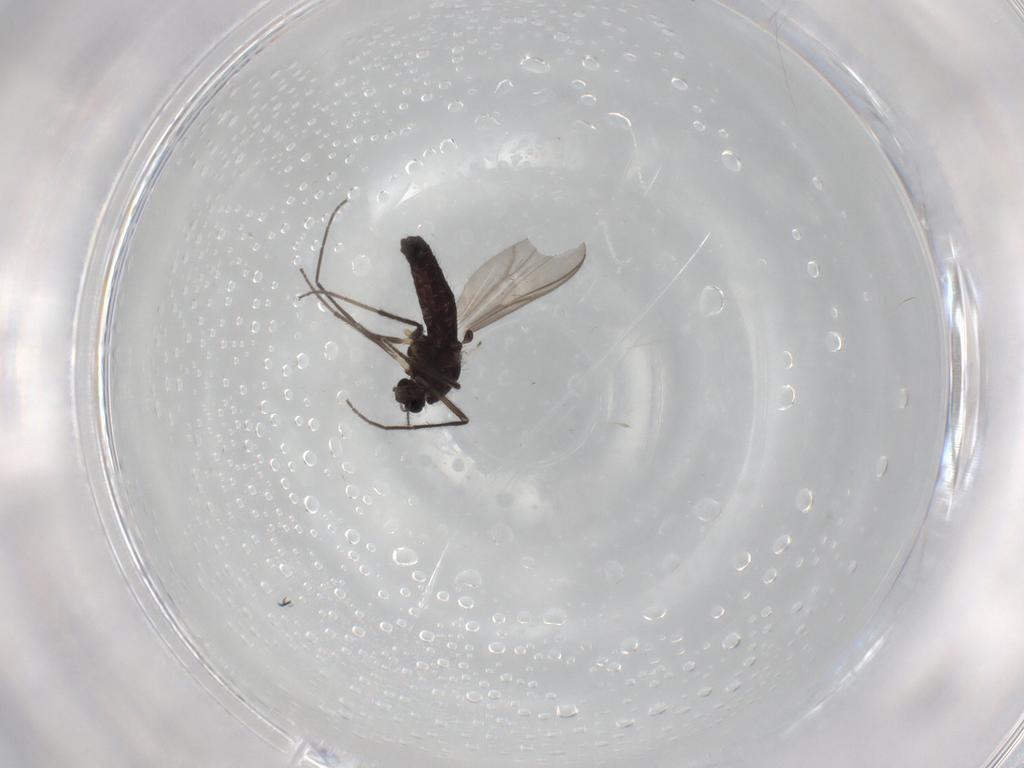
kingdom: Animalia
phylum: Arthropoda
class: Insecta
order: Diptera
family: Chironomidae
